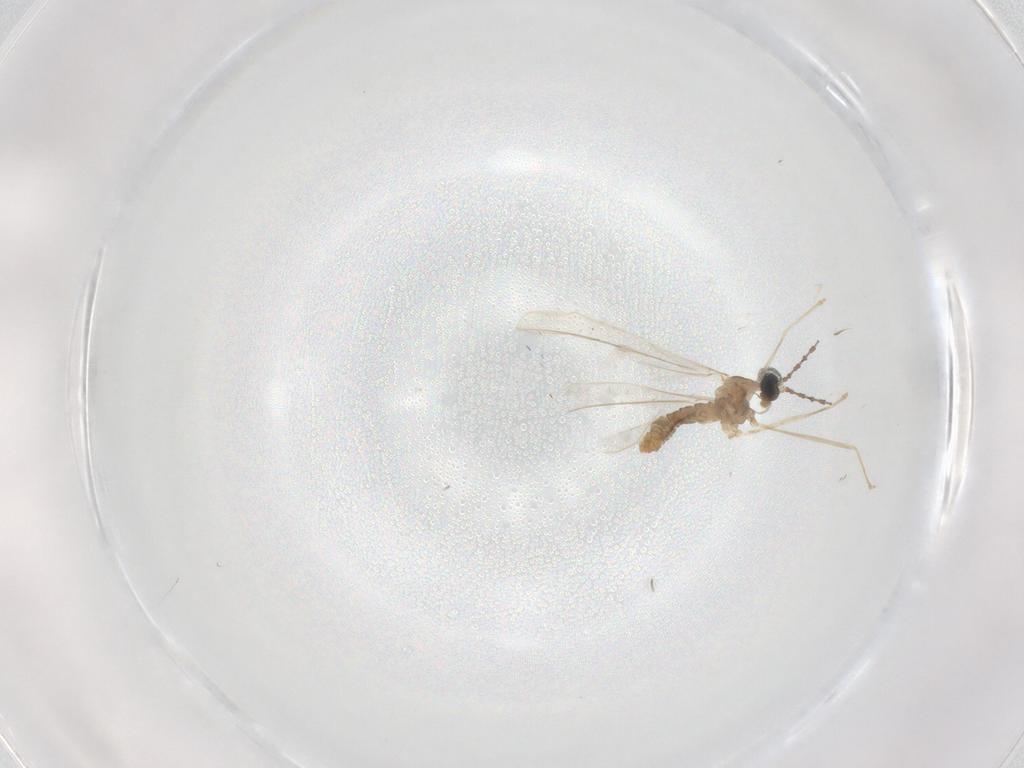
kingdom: Animalia
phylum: Arthropoda
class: Insecta
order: Diptera
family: Cecidomyiidae
